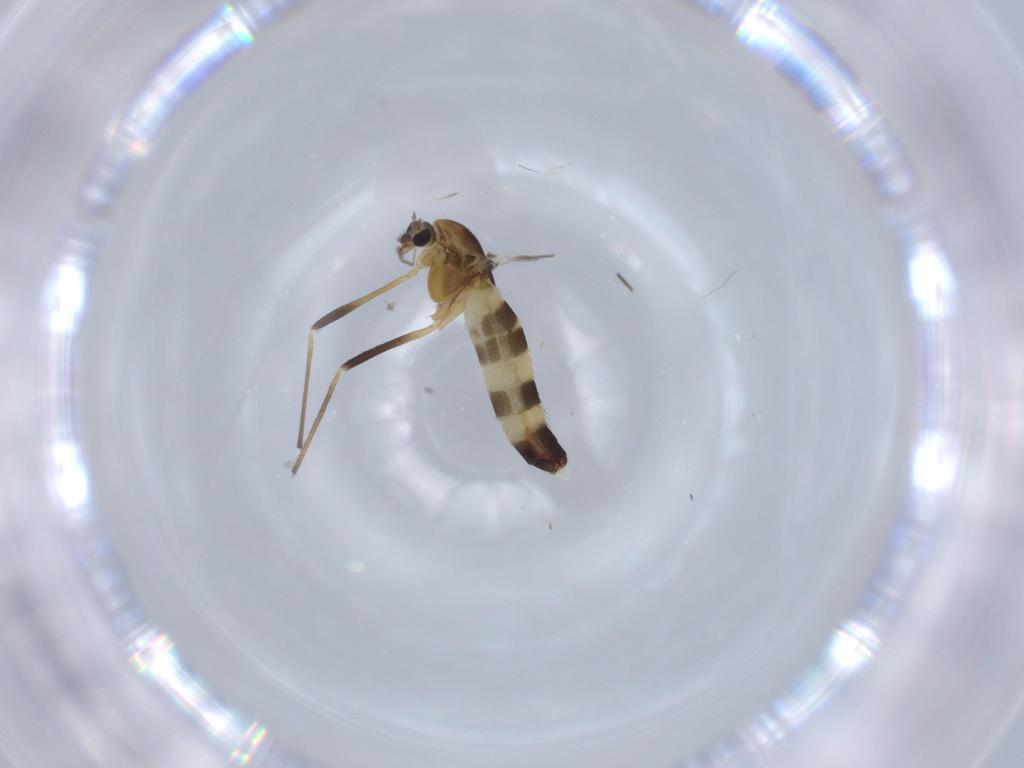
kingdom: Animalia
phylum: Arthropoda
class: Insecta
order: Diptera
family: Chironomidae
